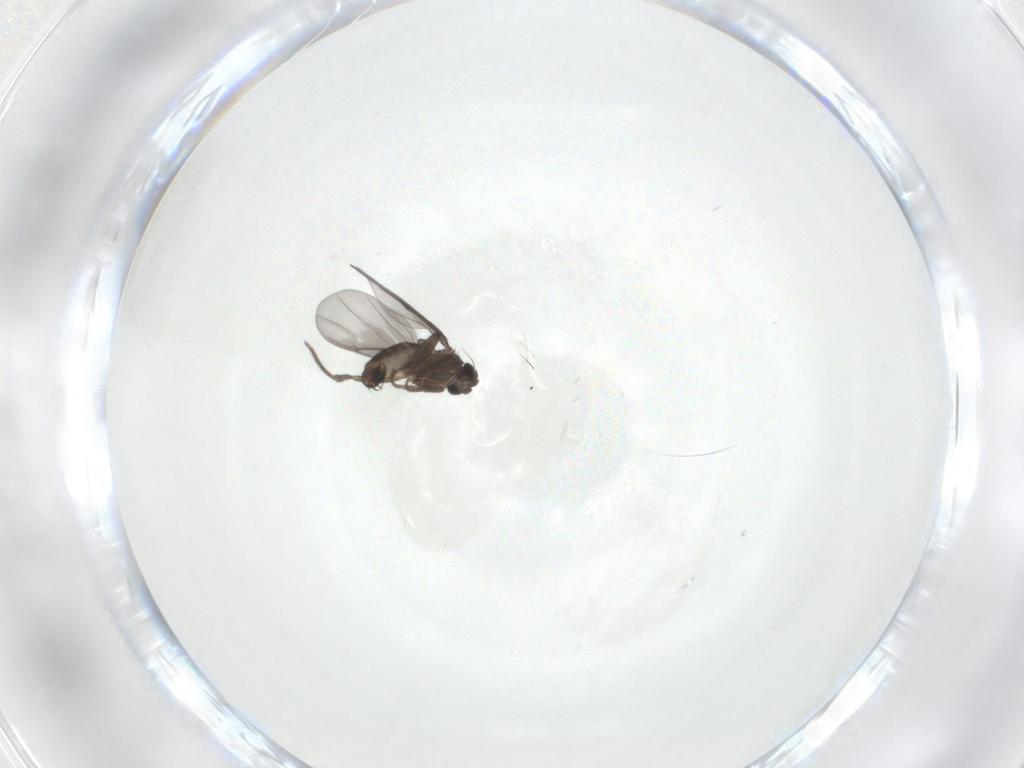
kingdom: Animalia
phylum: Arthropoda
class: Insecta
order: Diptera
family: Phoridae
